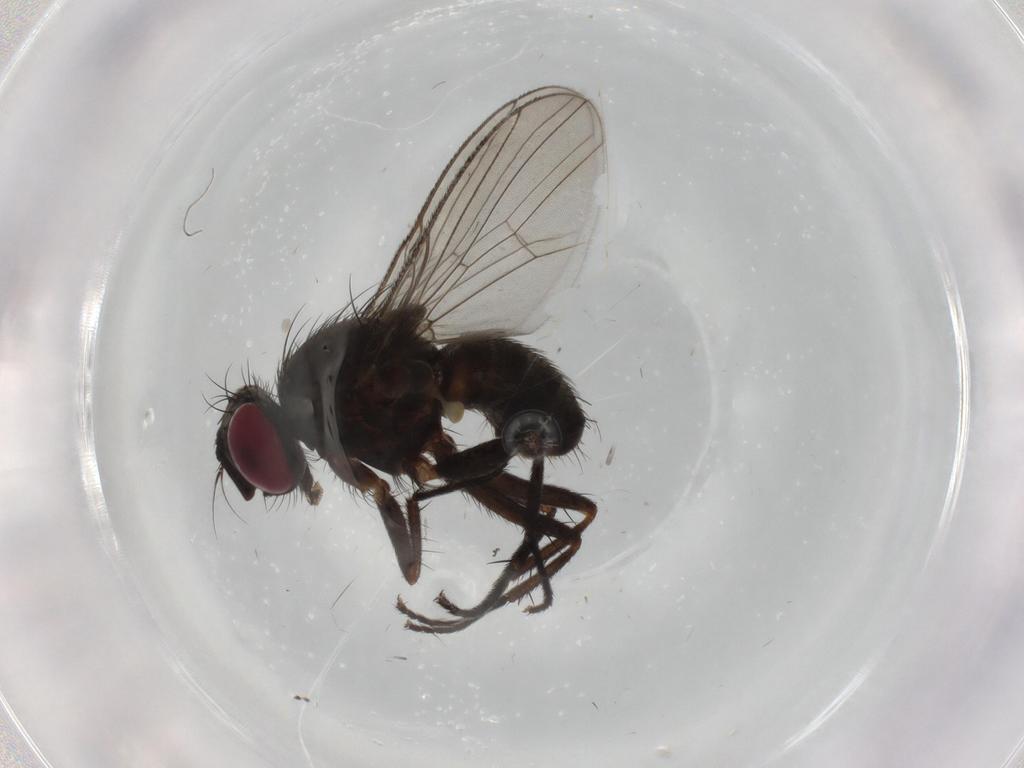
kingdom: Animalia
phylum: Arthropoda
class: Insecta
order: Diptera
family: Muscidae
